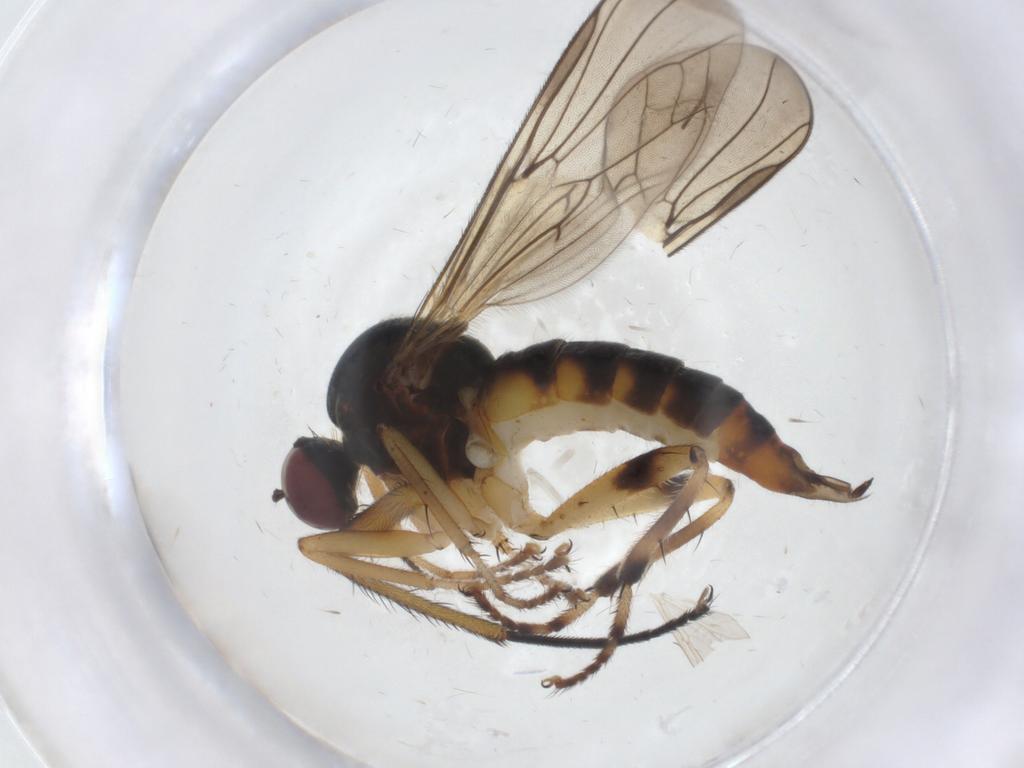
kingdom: Animalia
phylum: Arthropoda
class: Insecta
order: Diptera
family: Hybotidae
